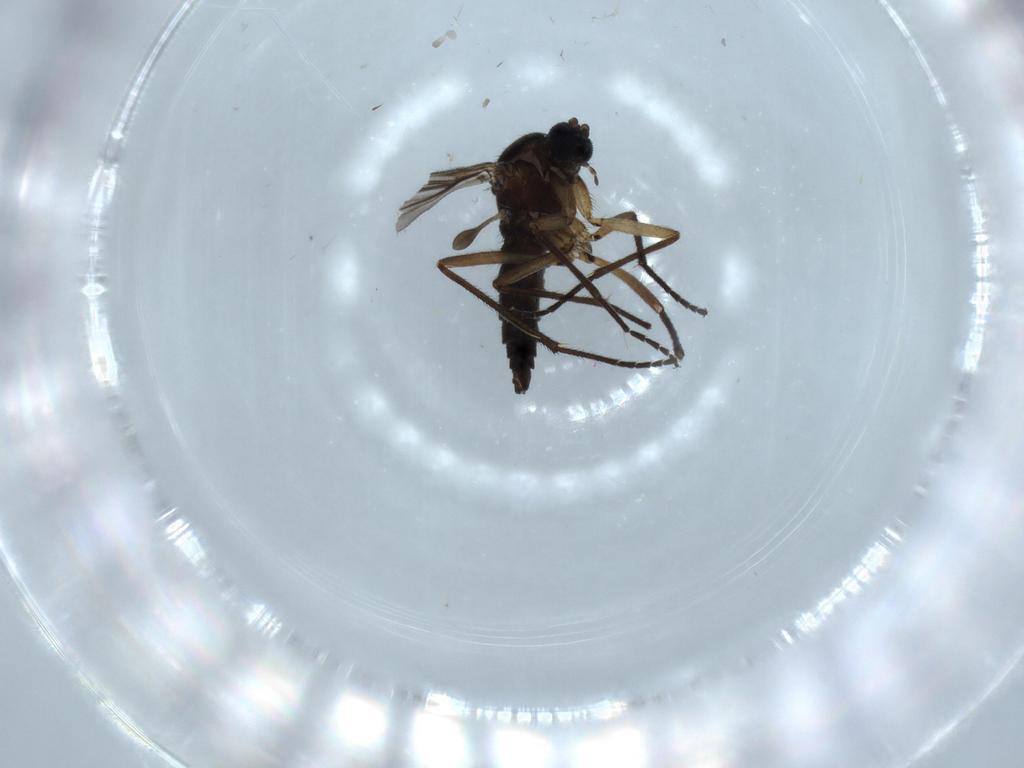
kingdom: Animalia
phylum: Arthropoda
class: Insecta
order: Diptera
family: Sciaridae
